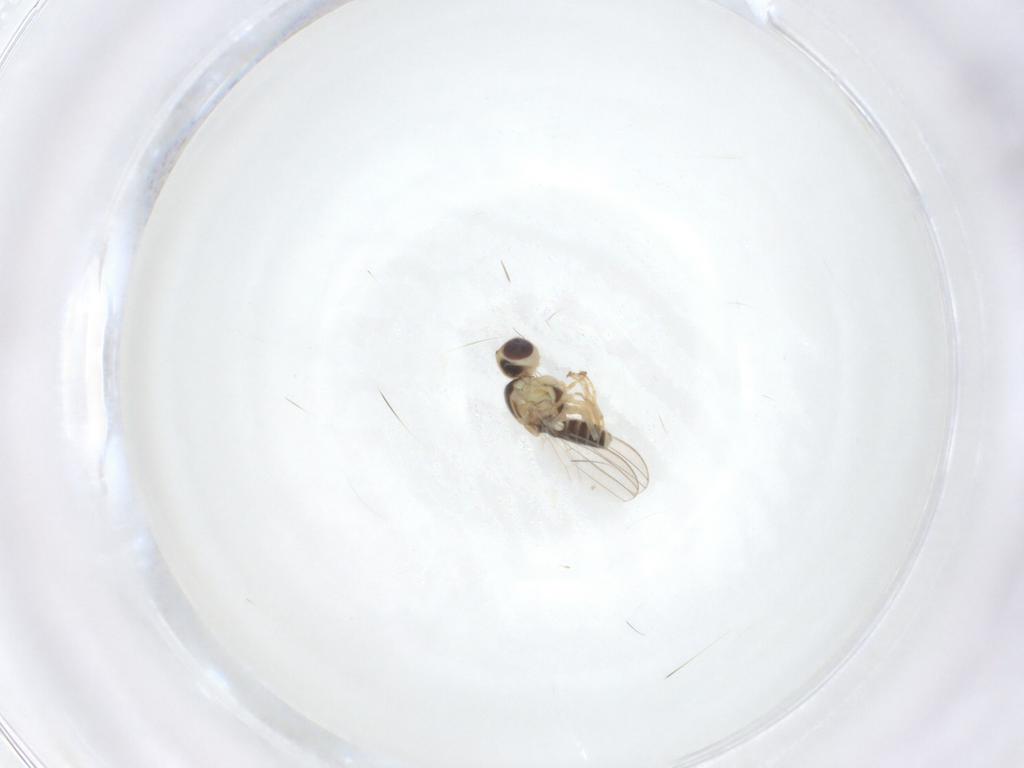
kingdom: Animalia
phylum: Arthropoda
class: Insecta
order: Diptera
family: Chyromyidae
